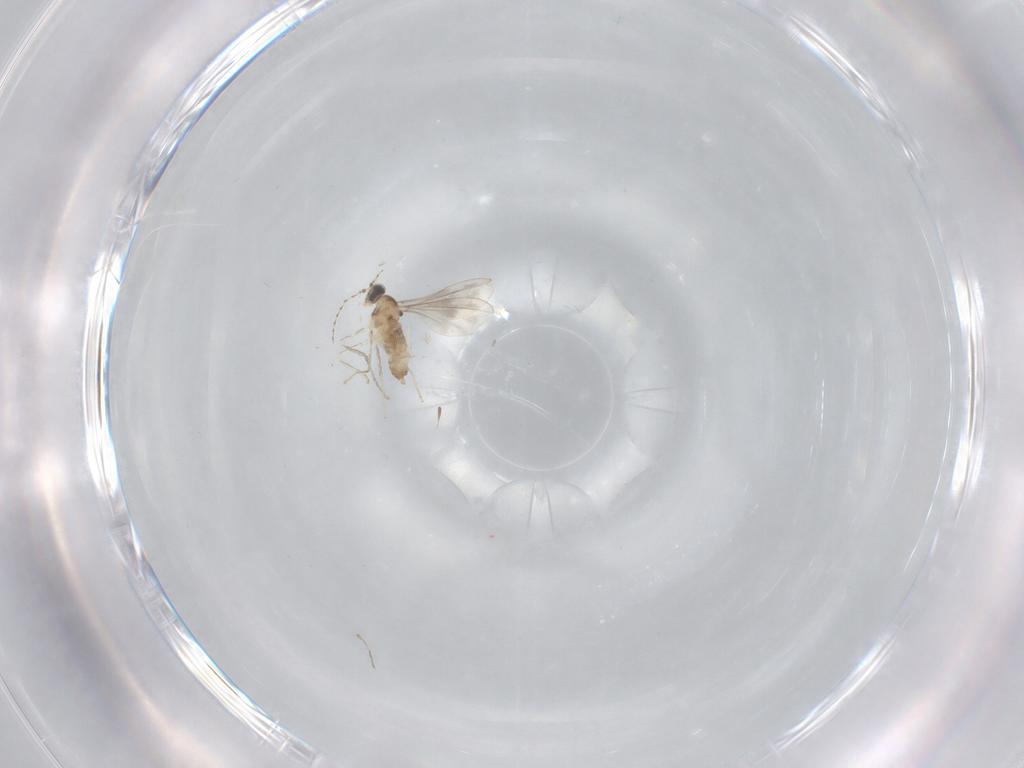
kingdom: Animalia
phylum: Arthropoda
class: Insecta
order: Diptera
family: Cecidomyiidae
